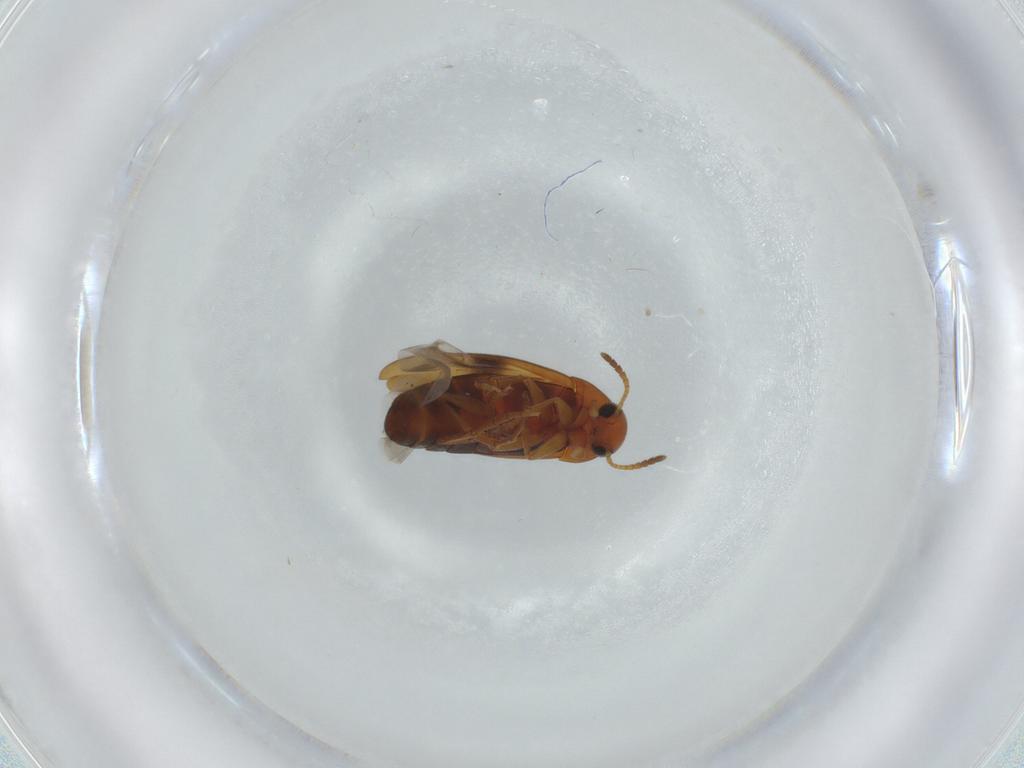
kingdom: Animalia
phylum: Arthropoda
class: Insecta
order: Coleoptera
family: Scraptiidae
